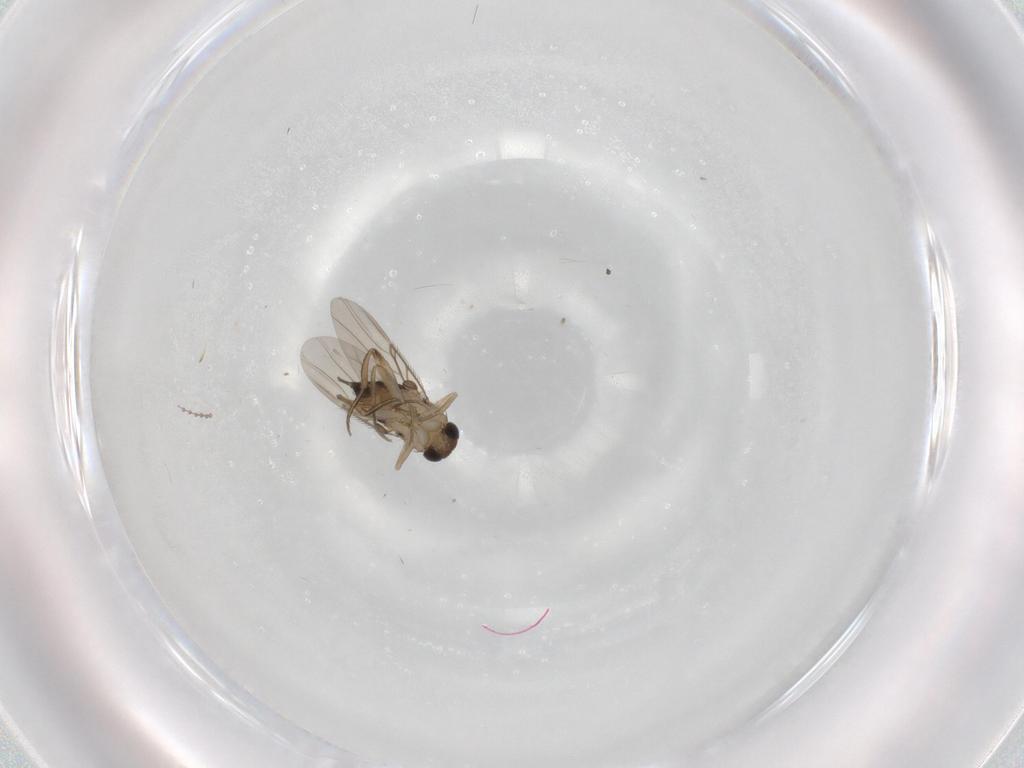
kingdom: Animalia
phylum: Arthropoda
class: Insecta
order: Diptera
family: Phoridae
